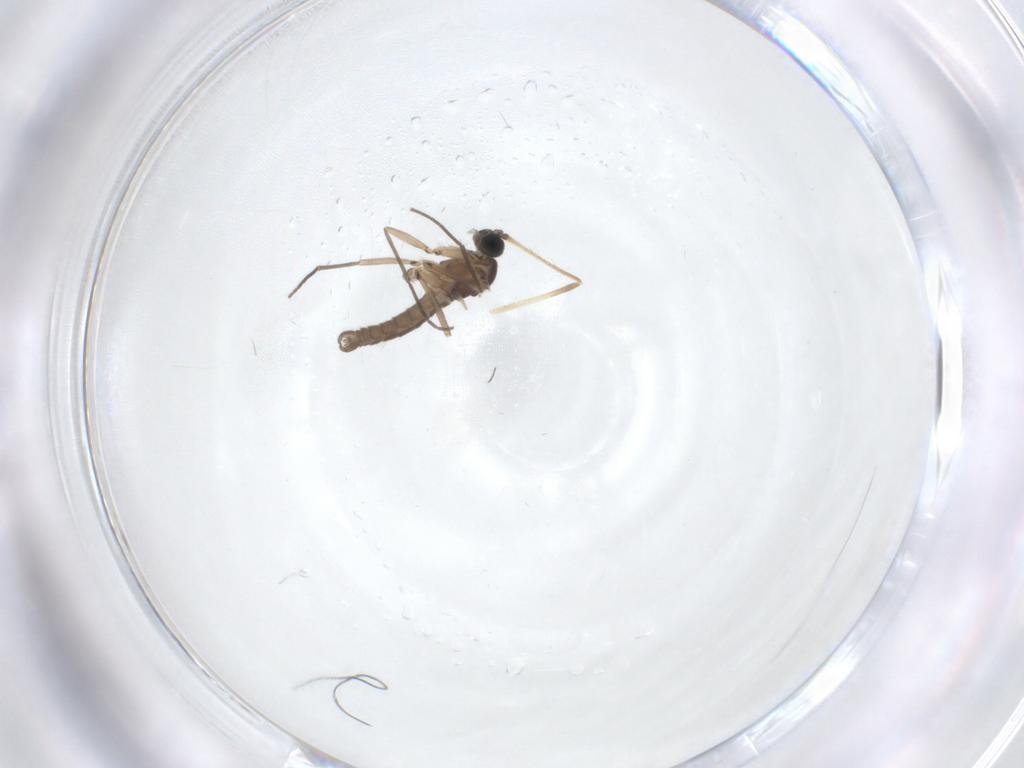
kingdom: Animalia
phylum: Arthropoda
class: Insecta
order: Diptera
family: Sciaridae
